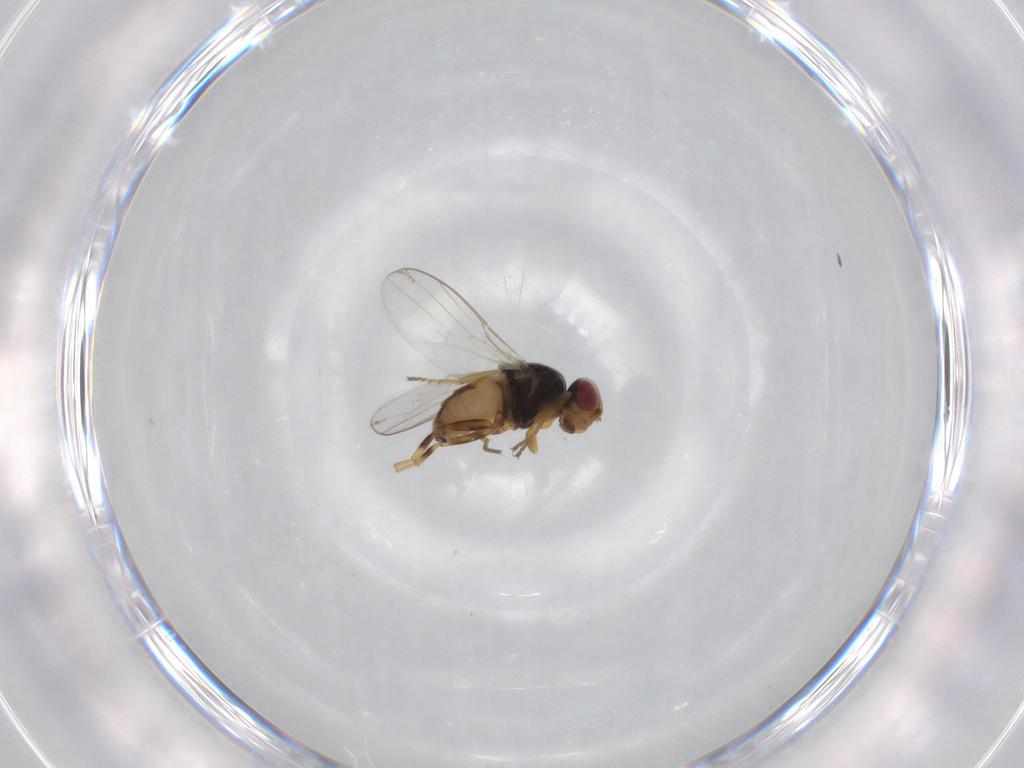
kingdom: Animalia
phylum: Arthropoda
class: Insecta
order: Diptera
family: Chloropidae
